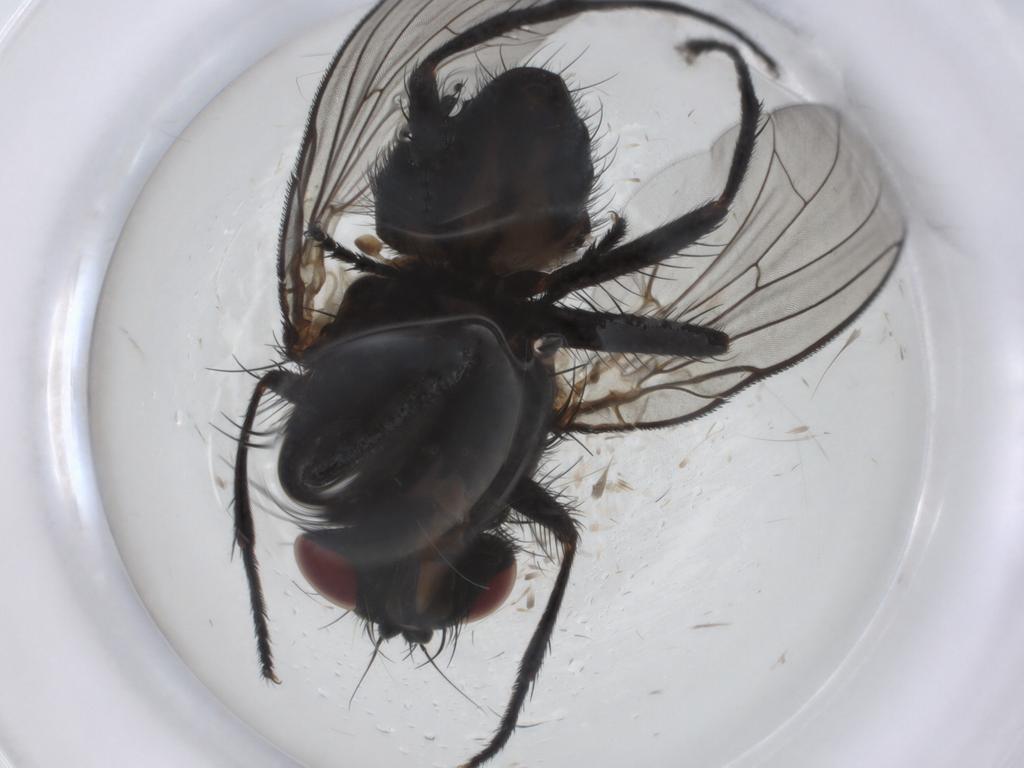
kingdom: Animalia
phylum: Arthropoda
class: Insecta
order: Diptera
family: Fannia
